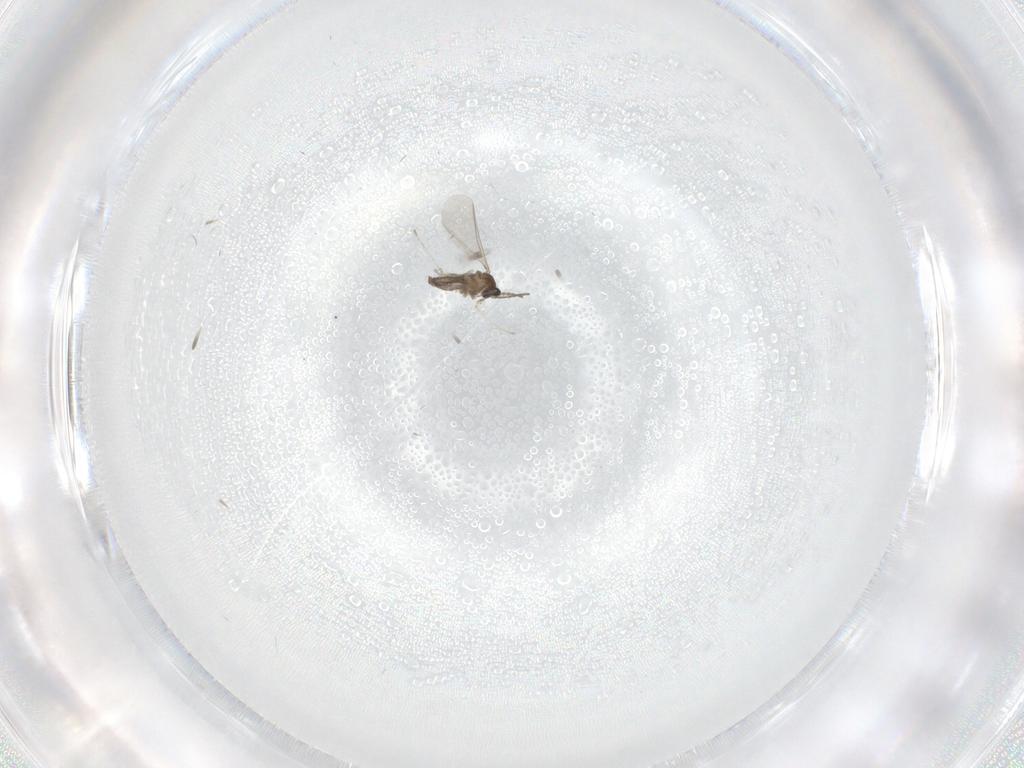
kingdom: Animalia
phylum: Arthropoda
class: Insecta
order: Diptera
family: Cecidomyiidae
